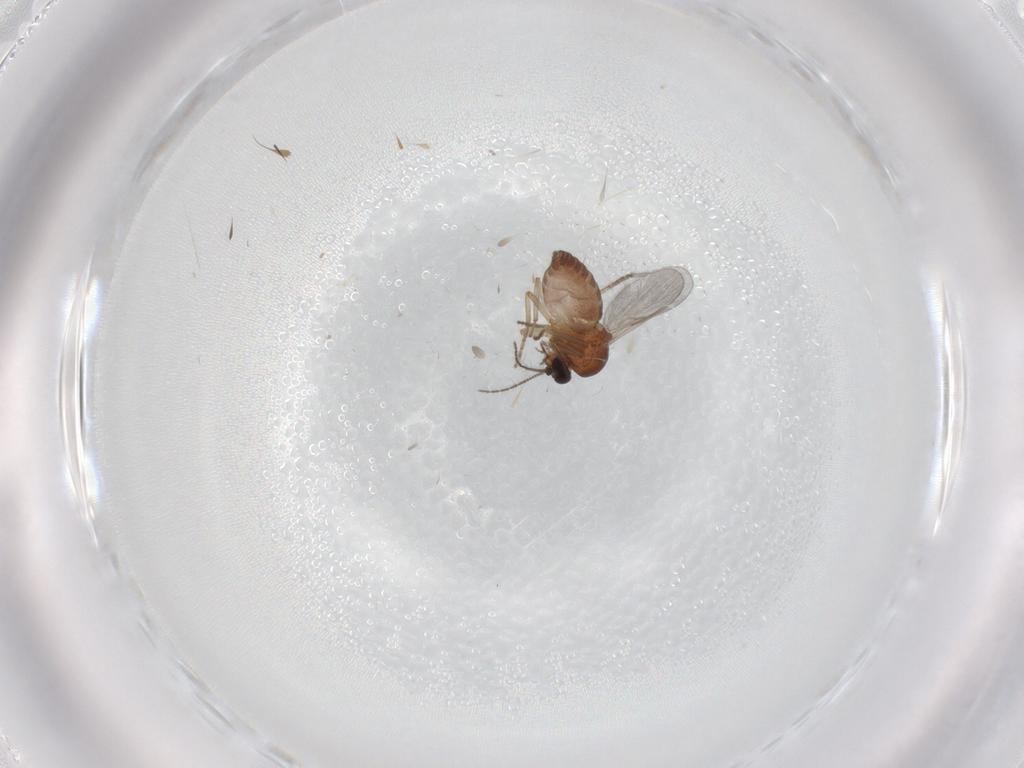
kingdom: Animalia
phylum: Arthropoda
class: Insecta
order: Diptera
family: Ceratopogonidae
